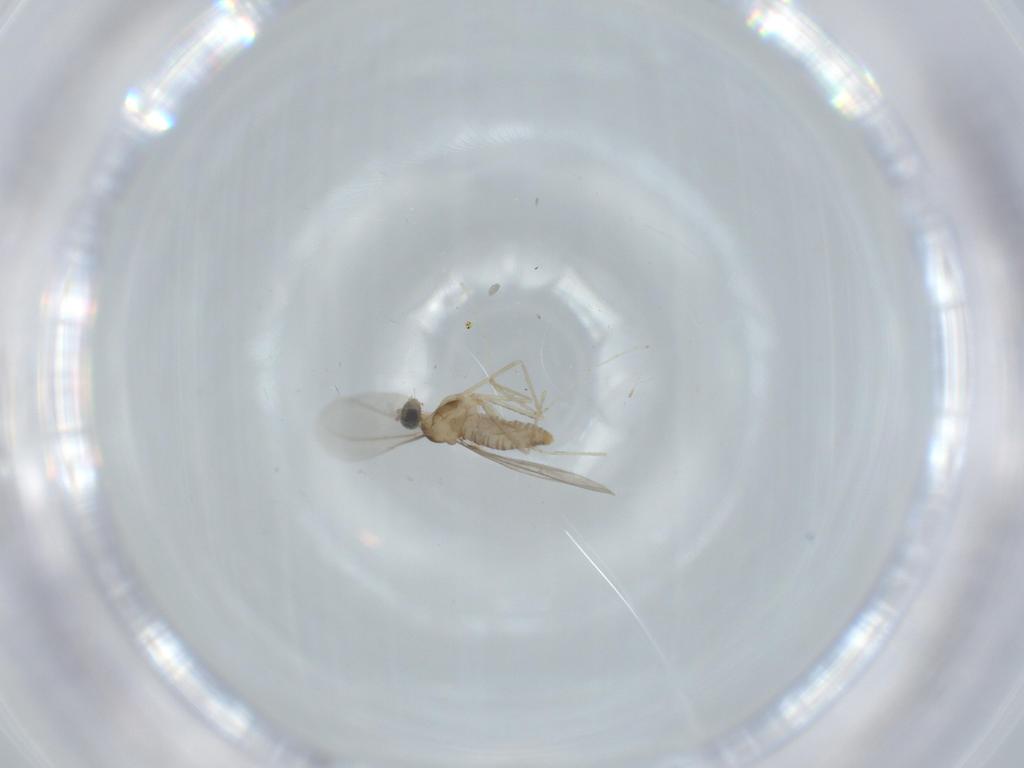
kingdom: Animalia
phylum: Arthropoda
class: Insecta
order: Diptera
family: Cecidomyiidae
